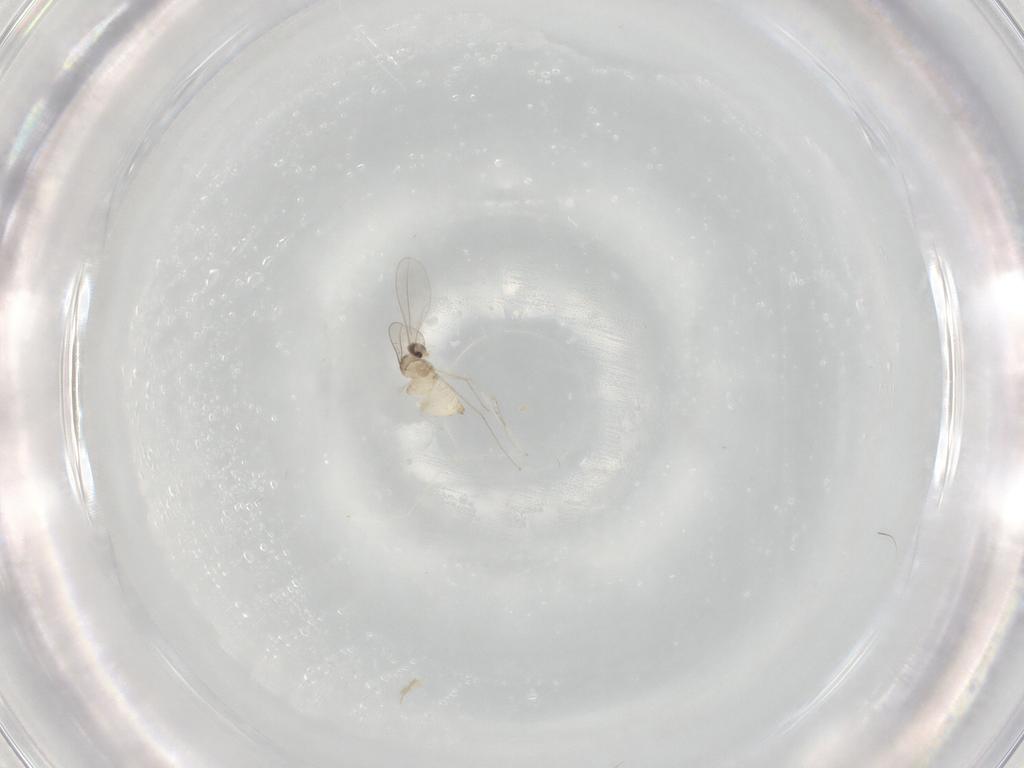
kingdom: Animalia
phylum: Arthropoda
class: Insecta
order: Diptera
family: Cecidomyiidae
